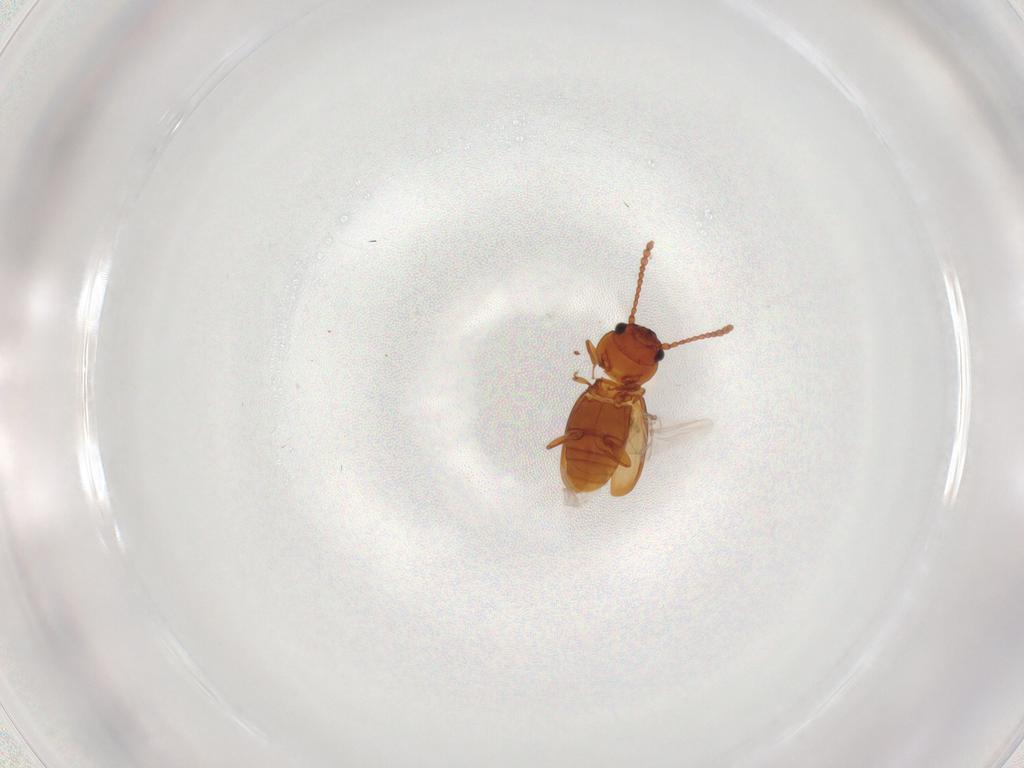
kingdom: Animalia
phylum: Arthropoda
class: Insecta
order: Coleoptera
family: Laemophloeidae
